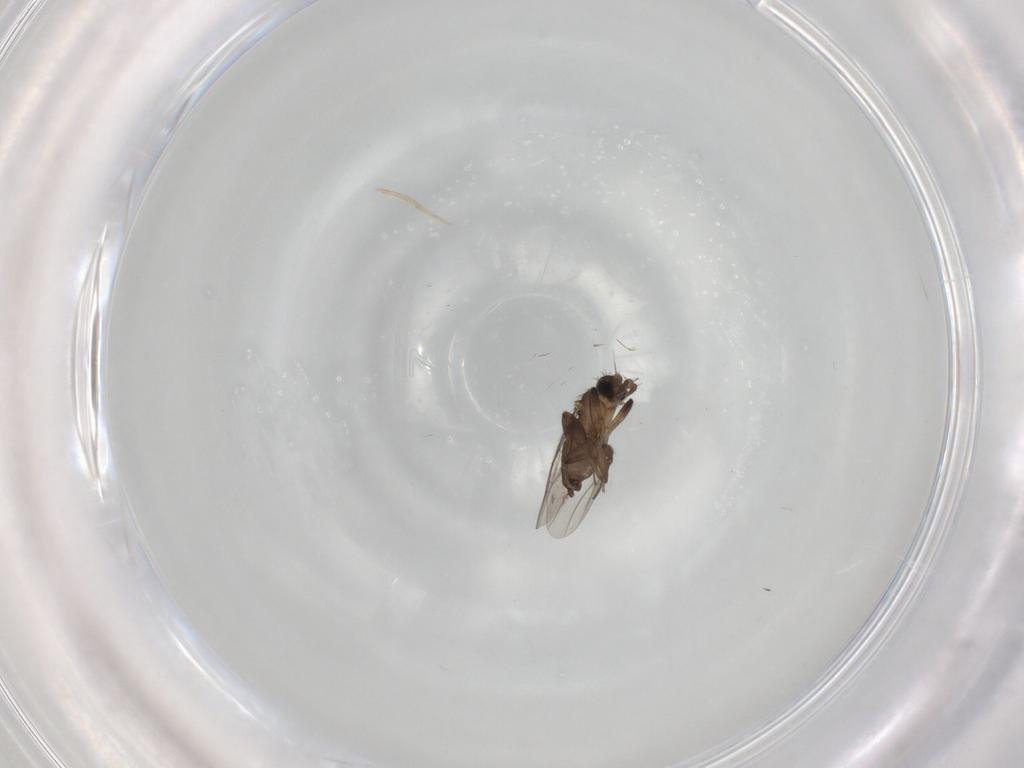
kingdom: Animalia
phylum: Arthropoda
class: Insecta
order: Diptera
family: Phoridae
